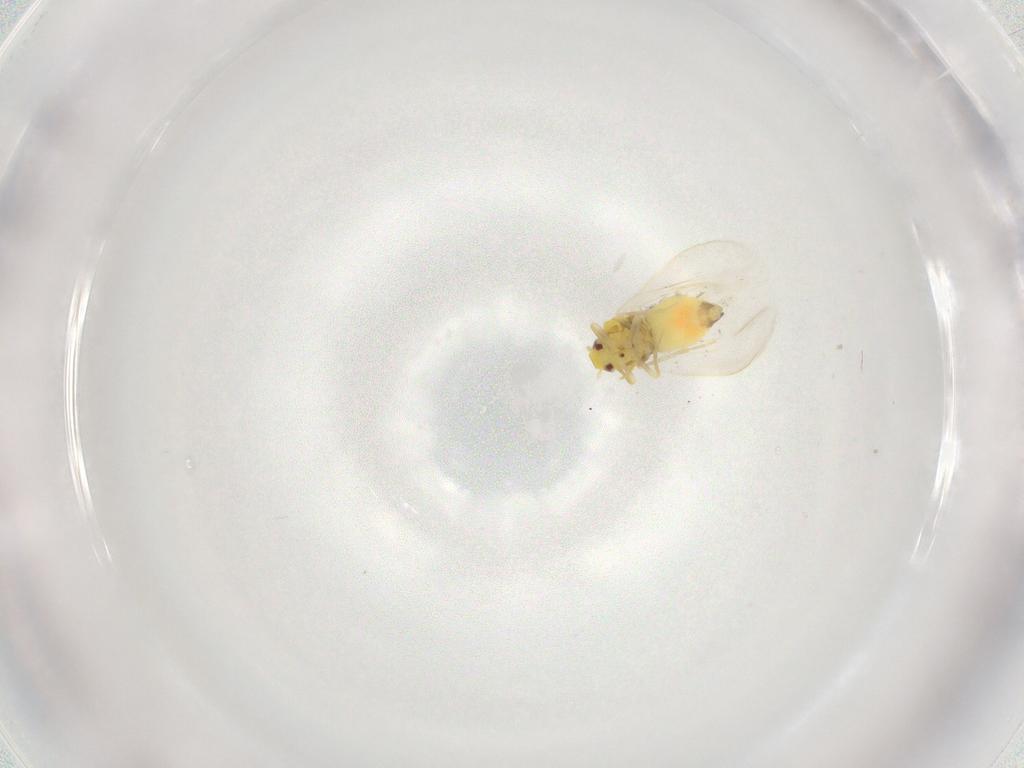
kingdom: Animalia
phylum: Arthropoda
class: Insecta
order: Hemiptera
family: Aleyrodidae
